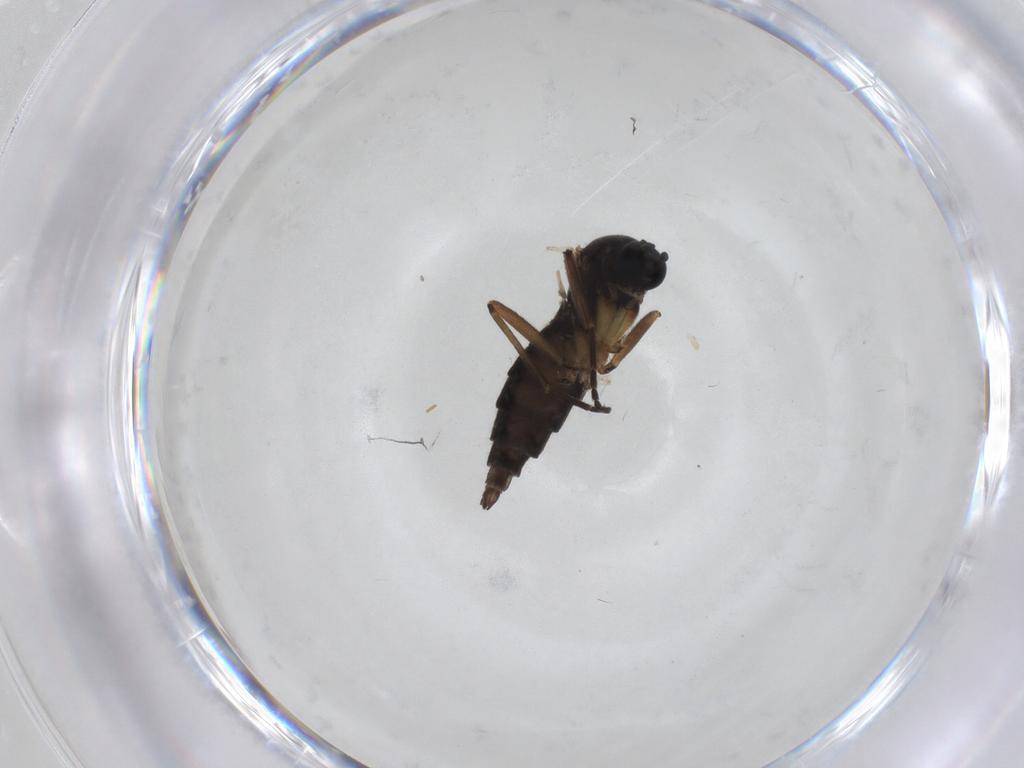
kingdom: Animalia
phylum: Arthropoda
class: Insecta
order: Diptera
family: Sciaridae
